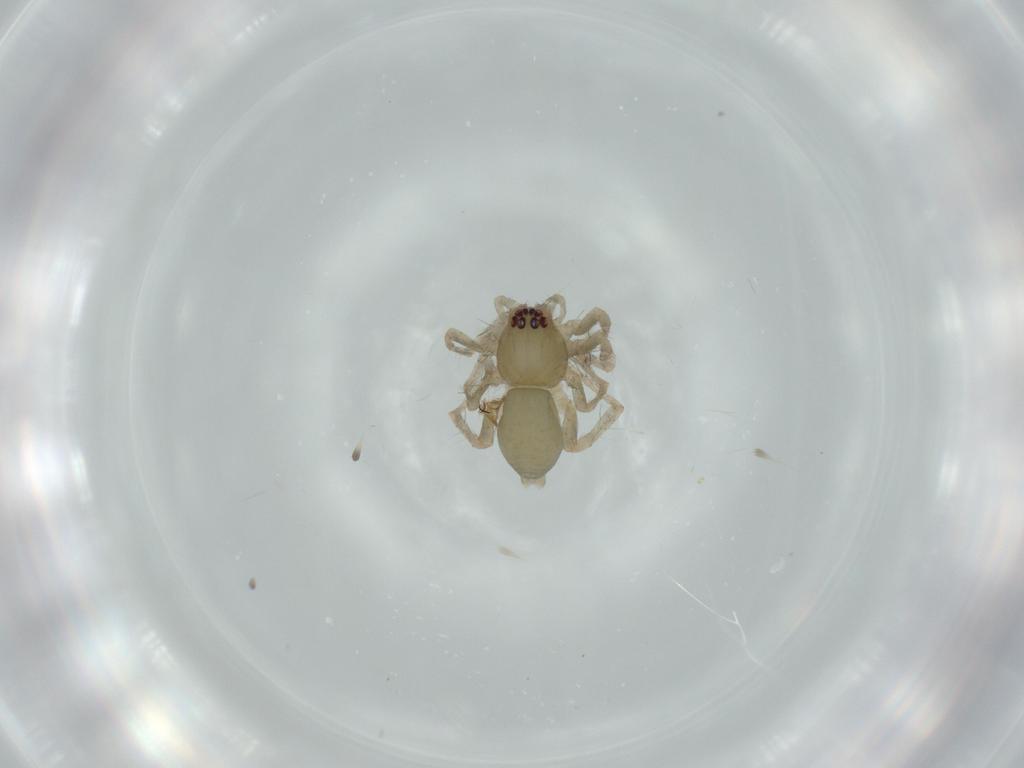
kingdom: Animalia
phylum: Arthropoda
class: Arachnida
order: Araneae
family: Anyphaenidae
